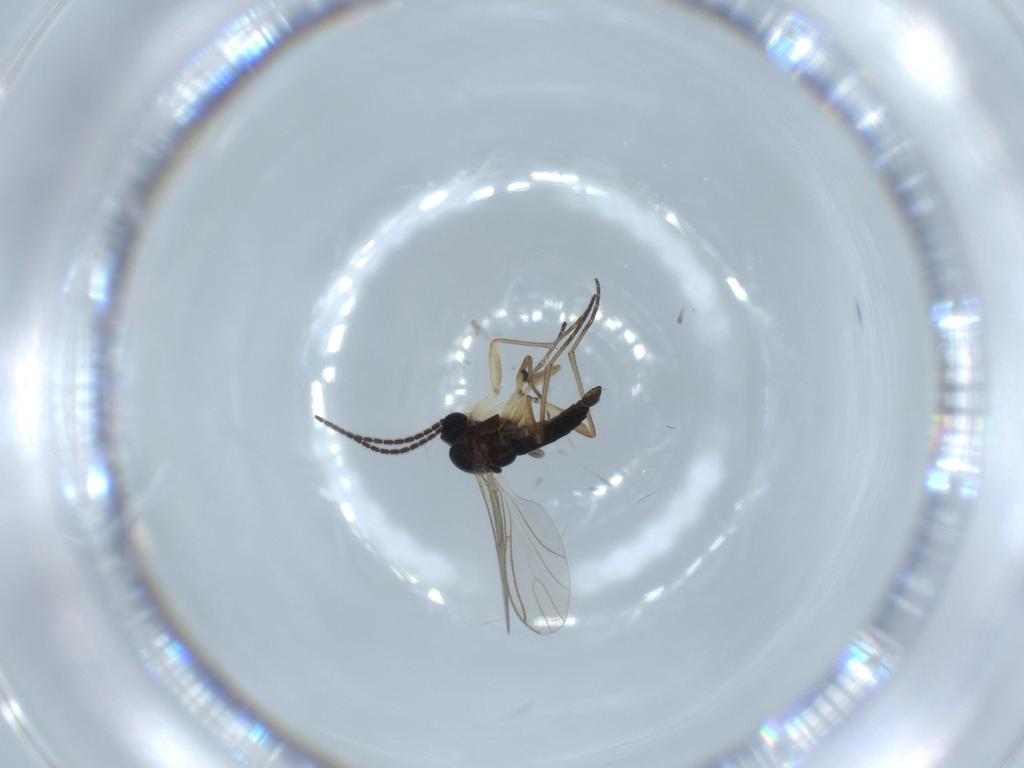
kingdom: Animalia
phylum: Arthropoda
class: Insecta
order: Diptera
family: Sciaridae
